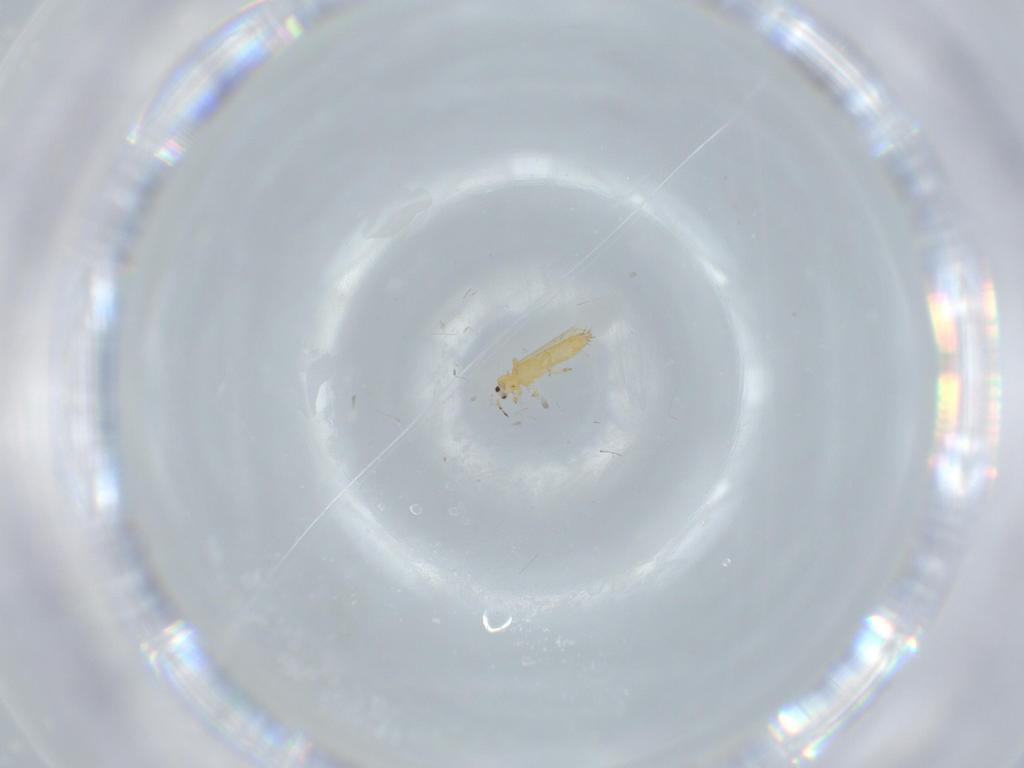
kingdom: Animalia
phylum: Arthropoda
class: Insecta
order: Thysanoptera
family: Thripidae
